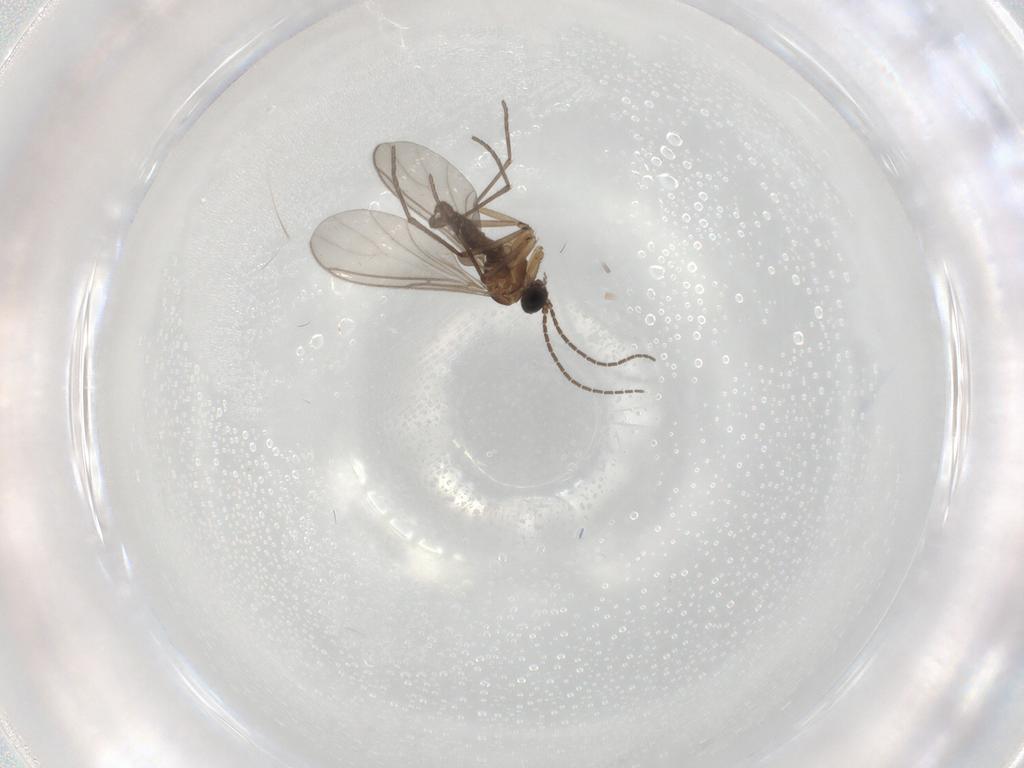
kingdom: Animalia
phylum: Arthropoda
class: Insecta
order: Diptera
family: Sciaridae
